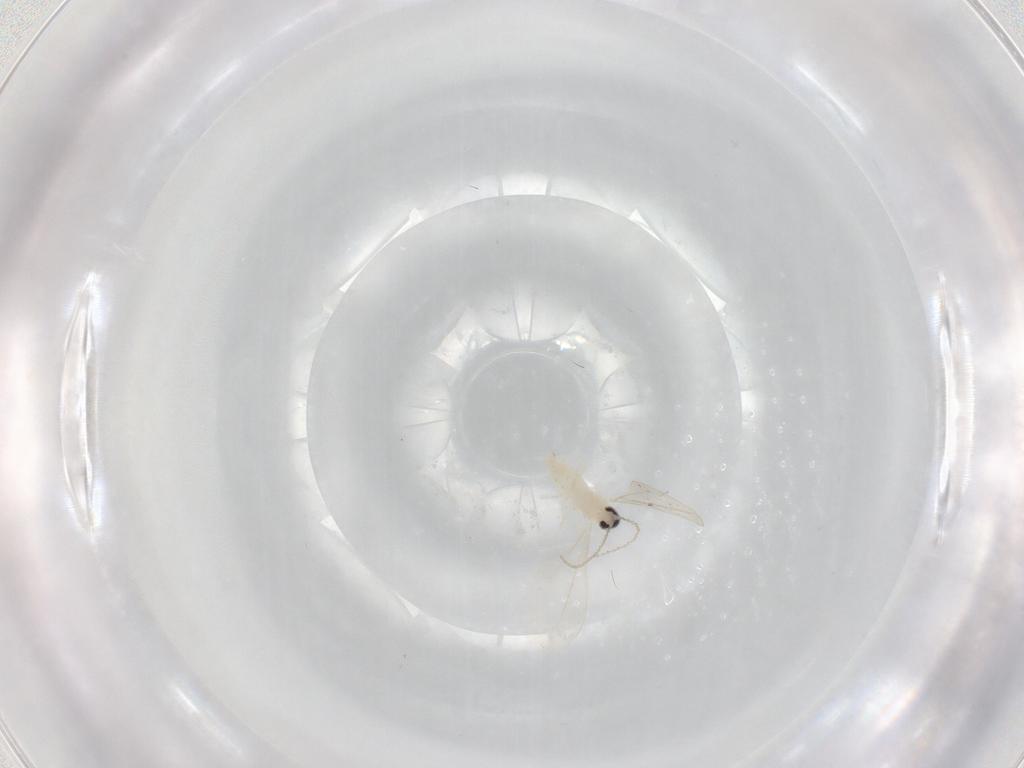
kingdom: Animalia
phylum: Arthropoda
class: Insecta
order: Diptera
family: Cecidomyiidae
